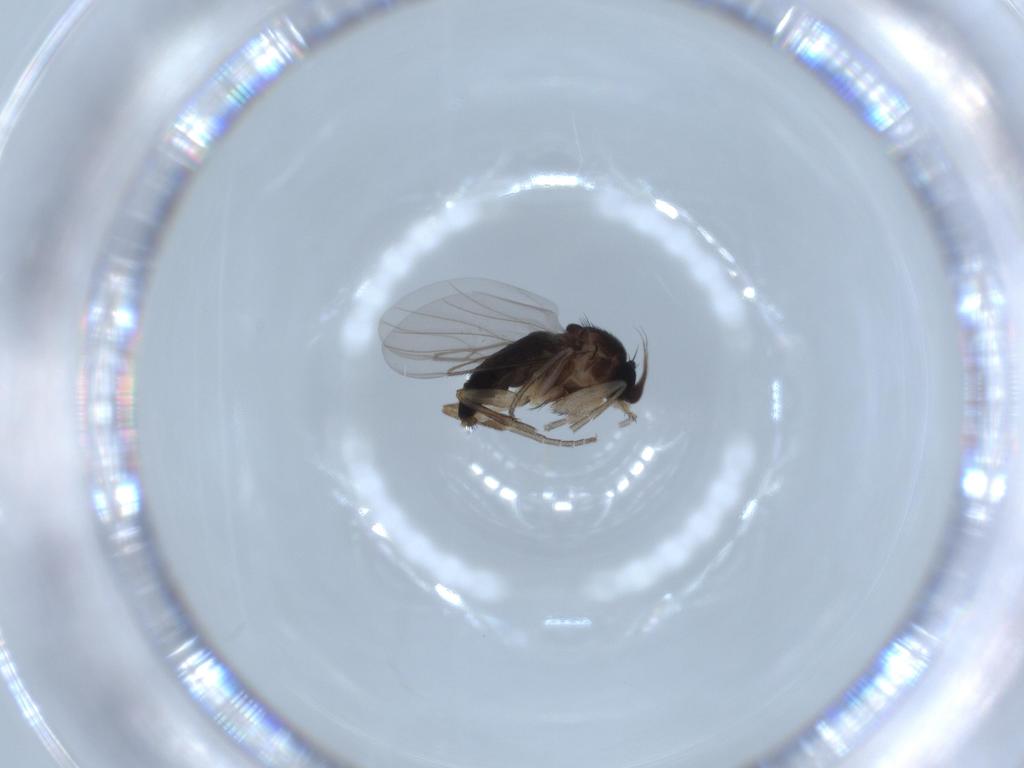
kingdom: Animalia
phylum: Arthropoda
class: Insecta
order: Diptera
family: Phoridae
